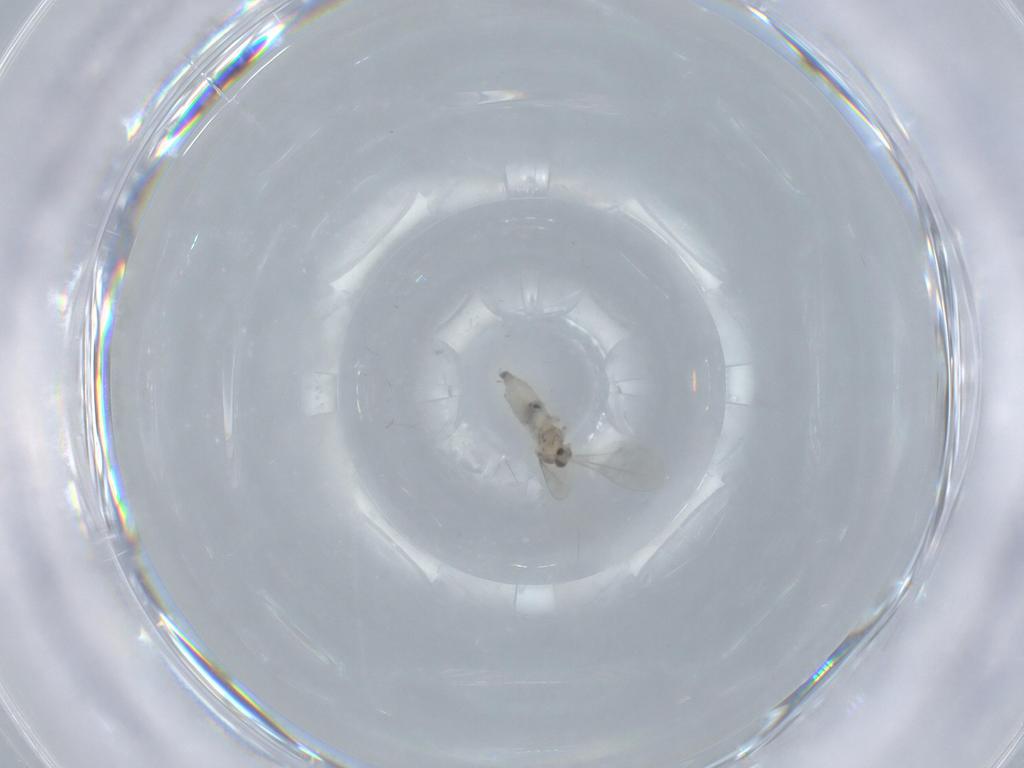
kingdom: Animalia
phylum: Arthropoda
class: Insecta
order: Diptera
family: Cecidomyiidae
